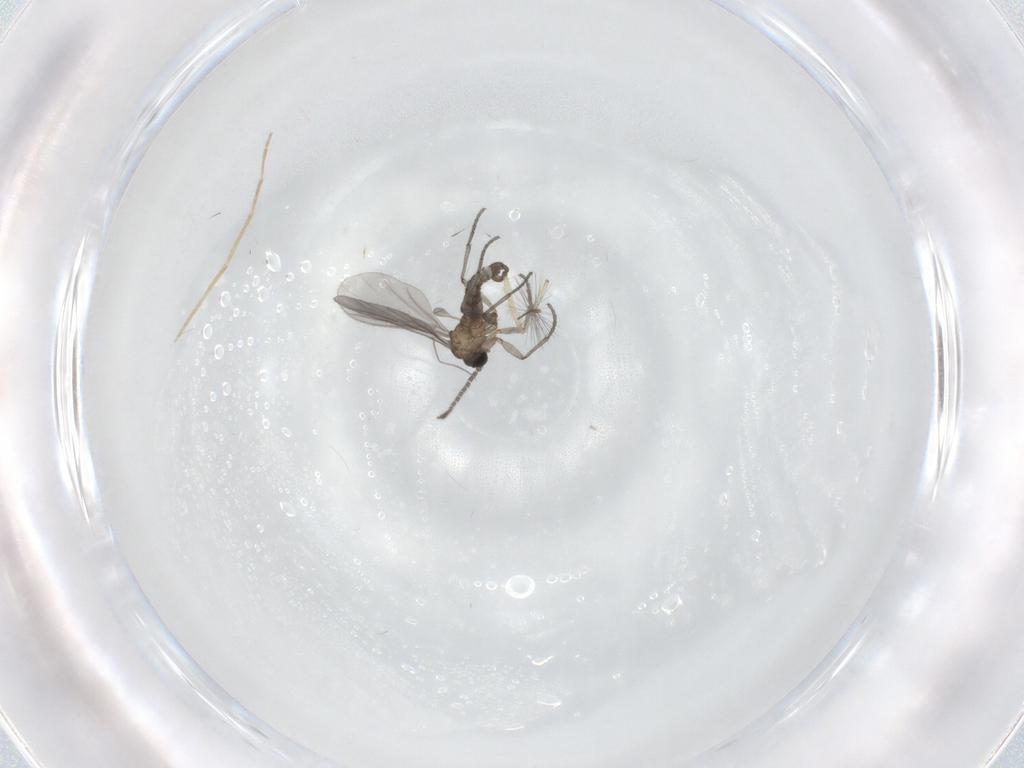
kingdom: Animalia
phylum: Arthropoda
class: Insecta
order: Diptera
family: Sciaridae
